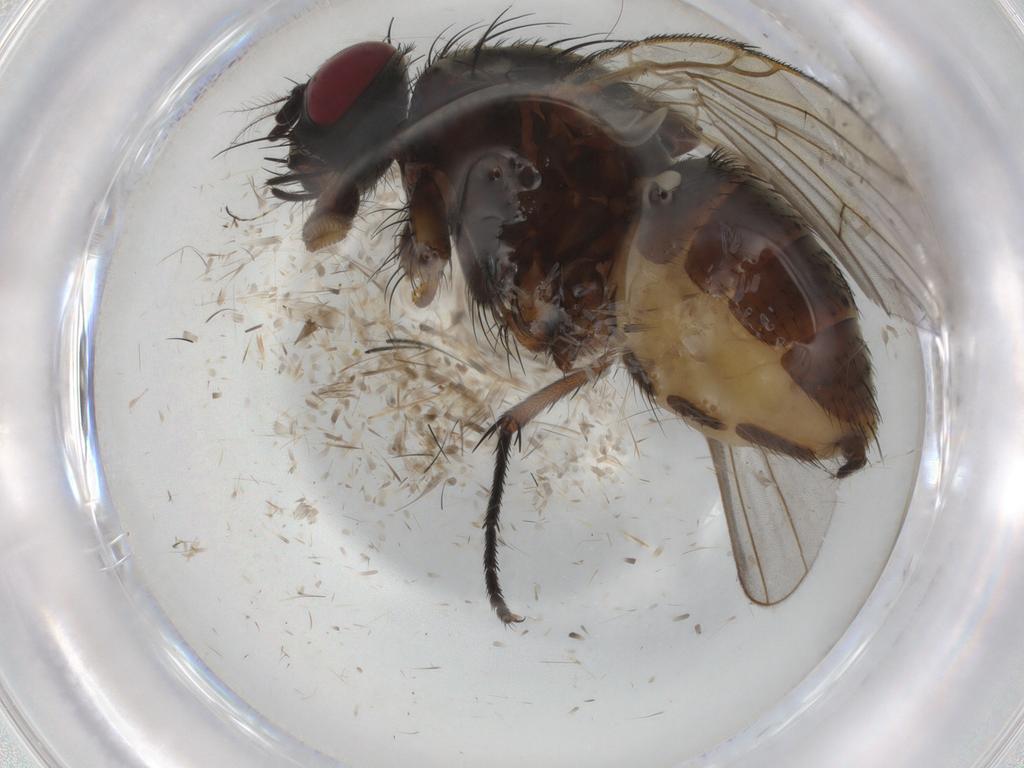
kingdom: Animalia
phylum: Arthropoda
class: Insecta
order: Diptera
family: Muscidae
